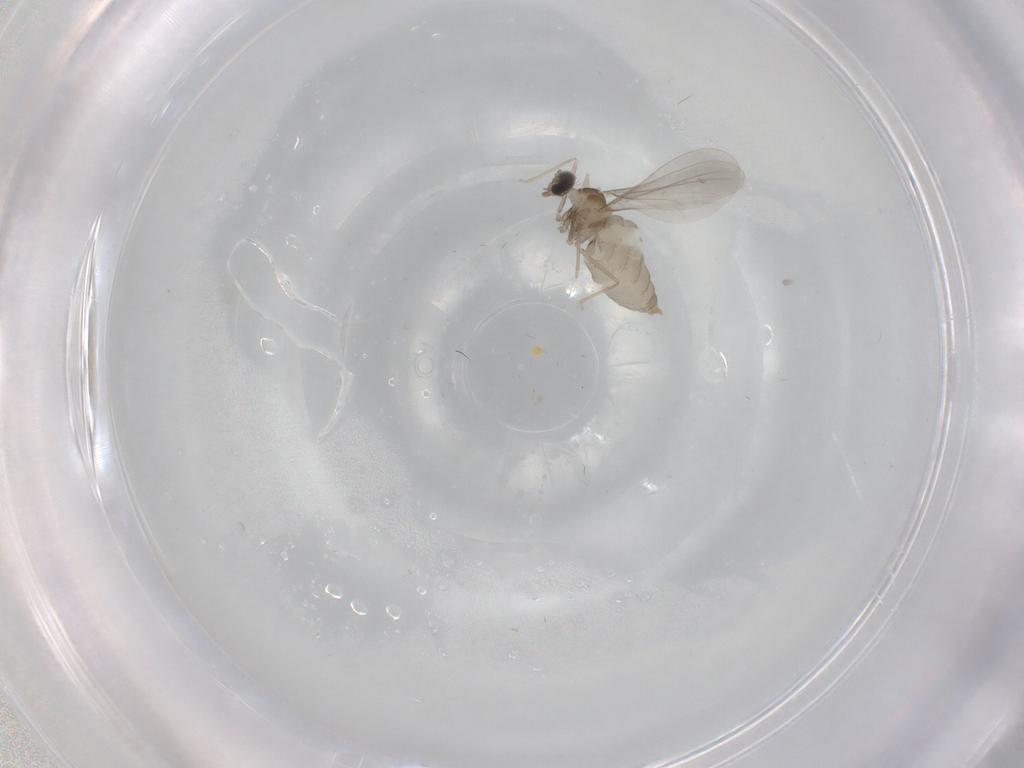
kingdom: Animalia
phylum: Arthropoda
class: Insecta
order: Diptera
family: Cecidomyiidae
